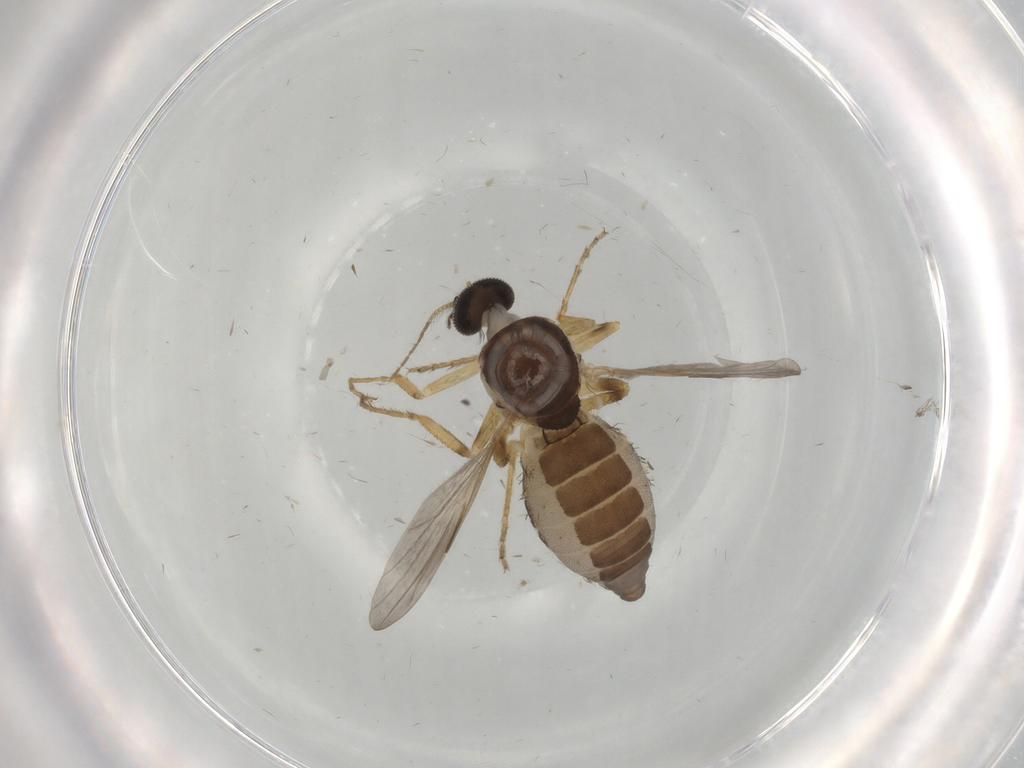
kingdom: Animalia
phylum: Arthropoda
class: Insecta
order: Diptera
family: Ceratopogonidae
